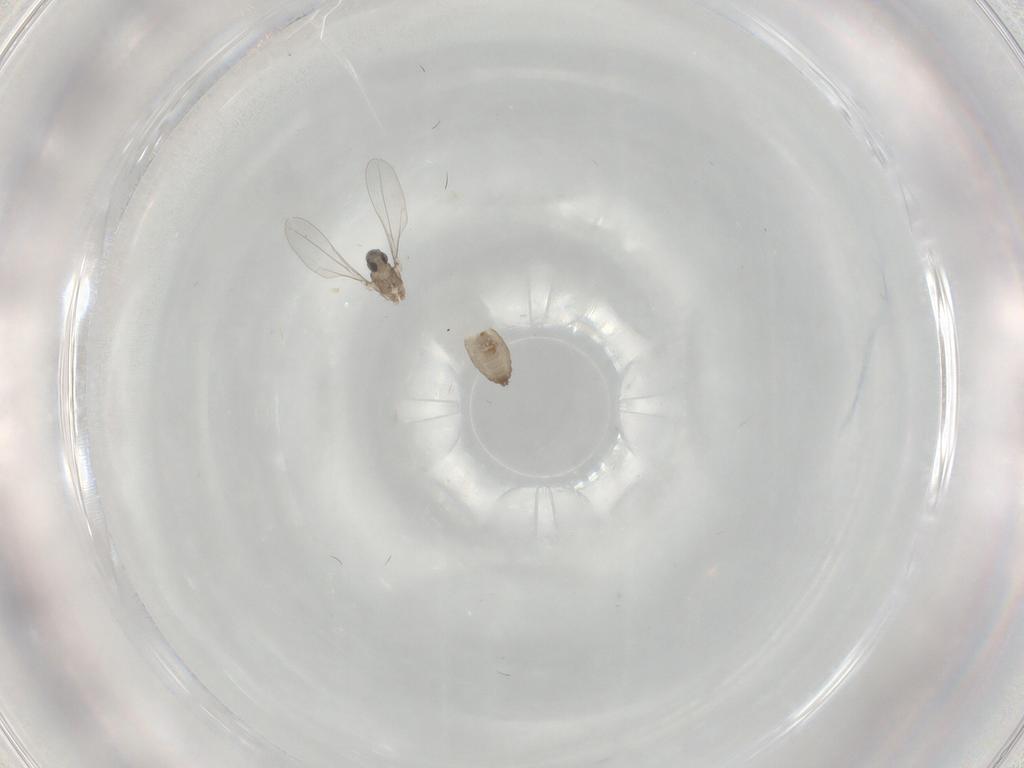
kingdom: Animalia
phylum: Arthropoda
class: Insecta
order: Diptera
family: Cecidomyiidae
